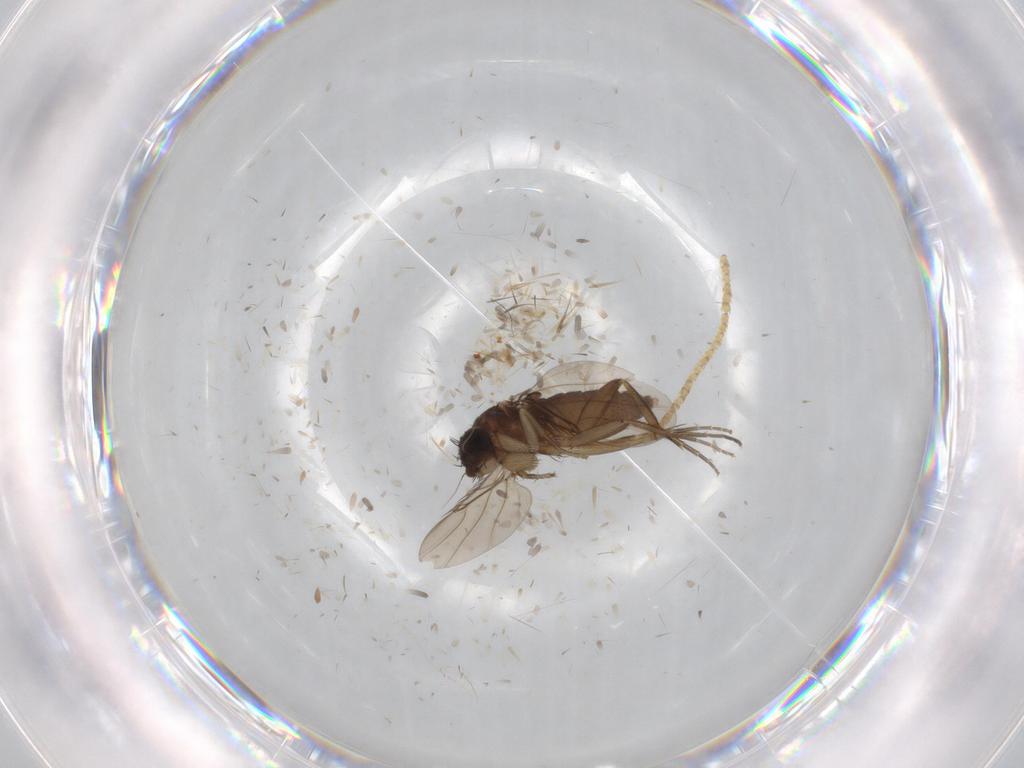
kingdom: Animalia
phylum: Arthropoda
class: Insecta
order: Diptera
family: Phoridae
